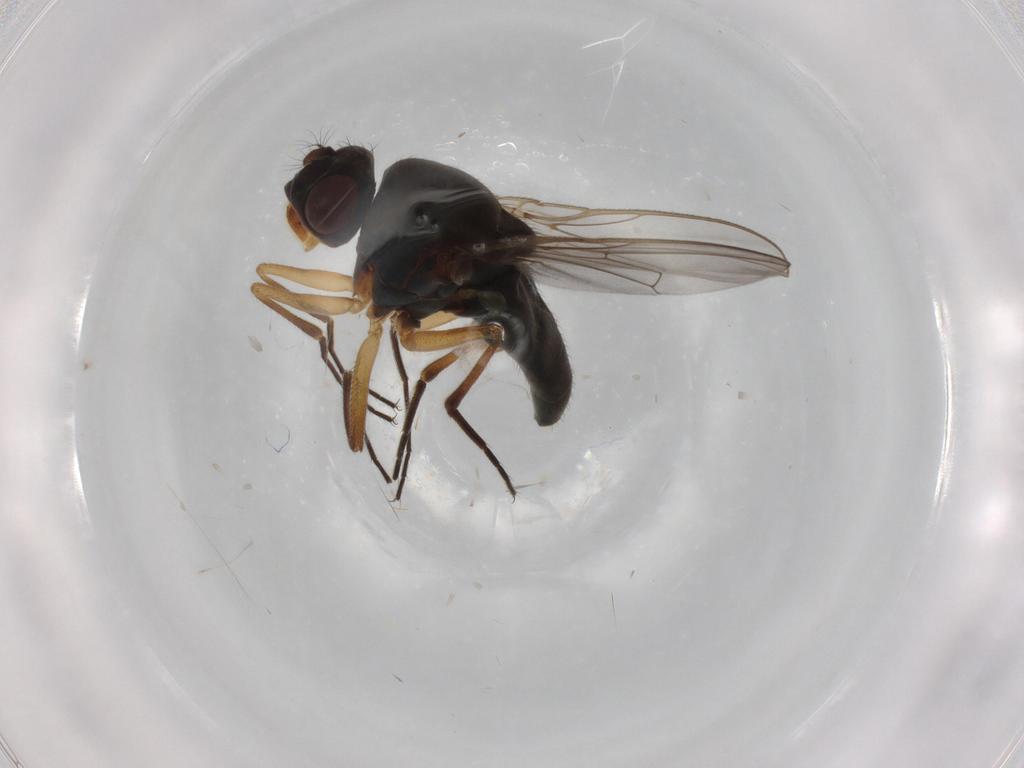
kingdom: Animalia
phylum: Arthropoda
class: Insecta
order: Diptera
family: Ephydridae
